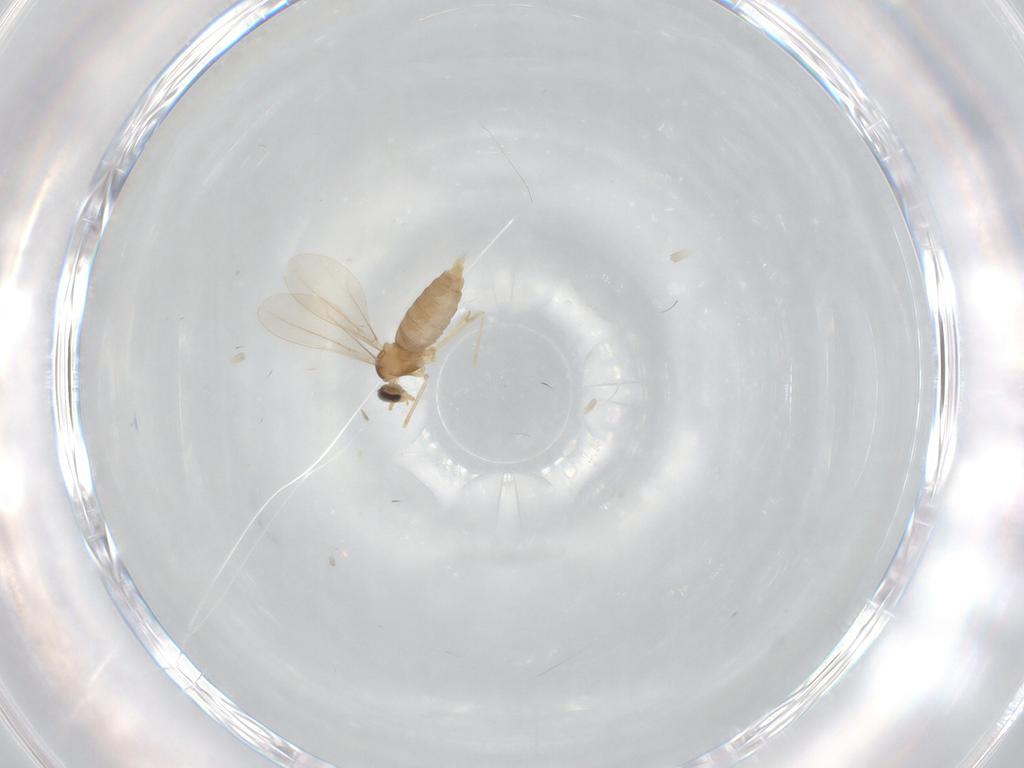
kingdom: Animalia
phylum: Arthropoda
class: Insecta
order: Diptera
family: Cecidomyiidae
